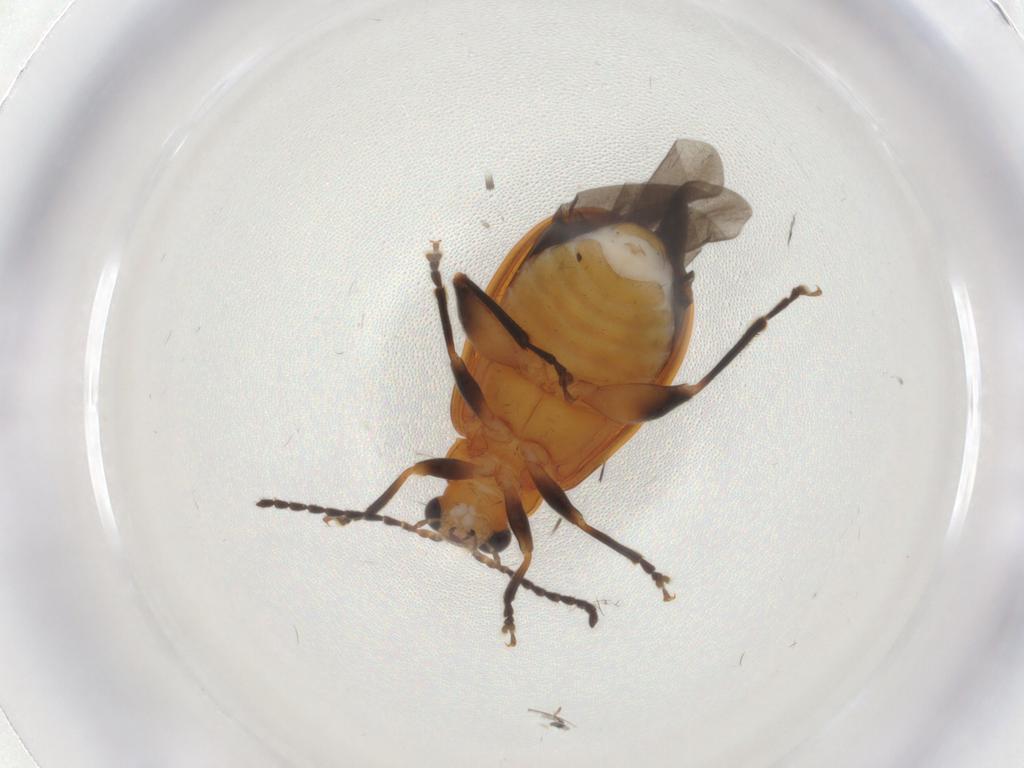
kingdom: Animalia
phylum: Arthropoda
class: Insecta
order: Coleoptera
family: Chrysomelidae
